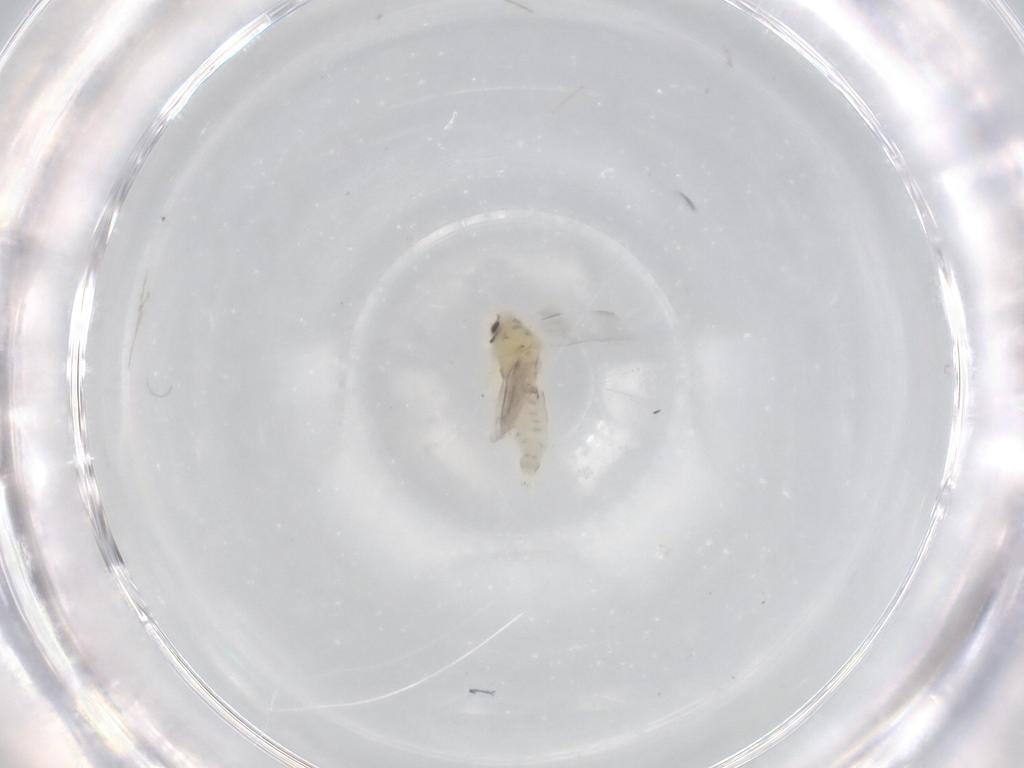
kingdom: Animalia
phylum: Arthropoda
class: Insecta
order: Hemiptera
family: Aleyrodidae
